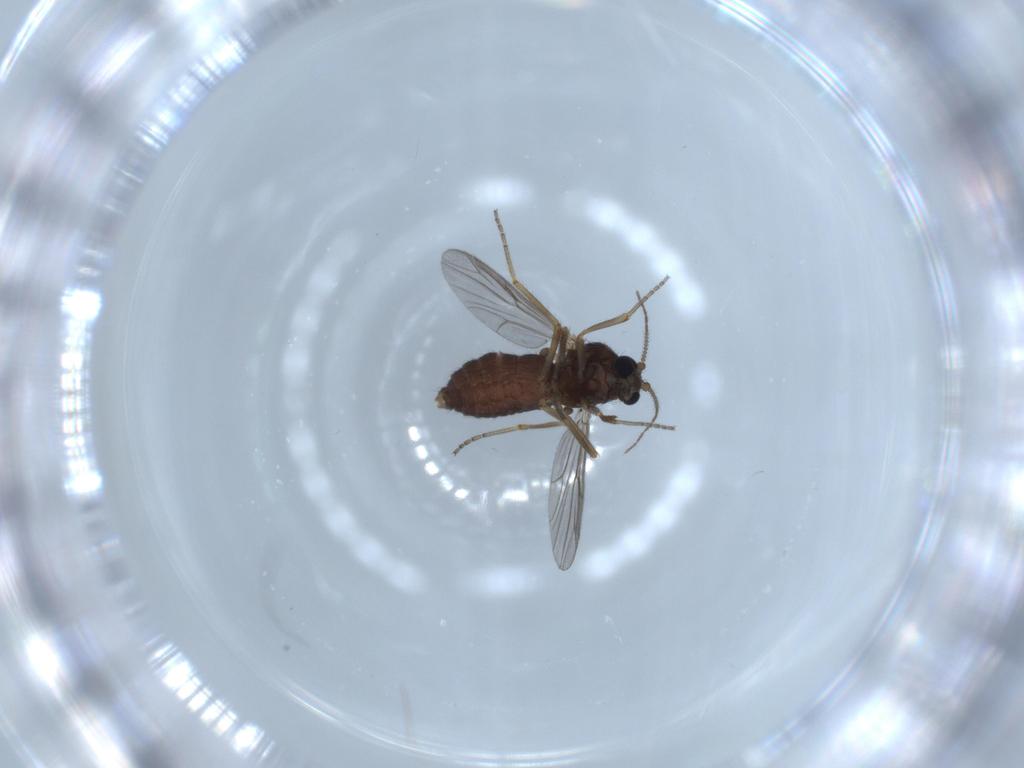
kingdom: Animalia
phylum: Arthropoda
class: Insecta
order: Diptera
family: Ceratopogonidae
